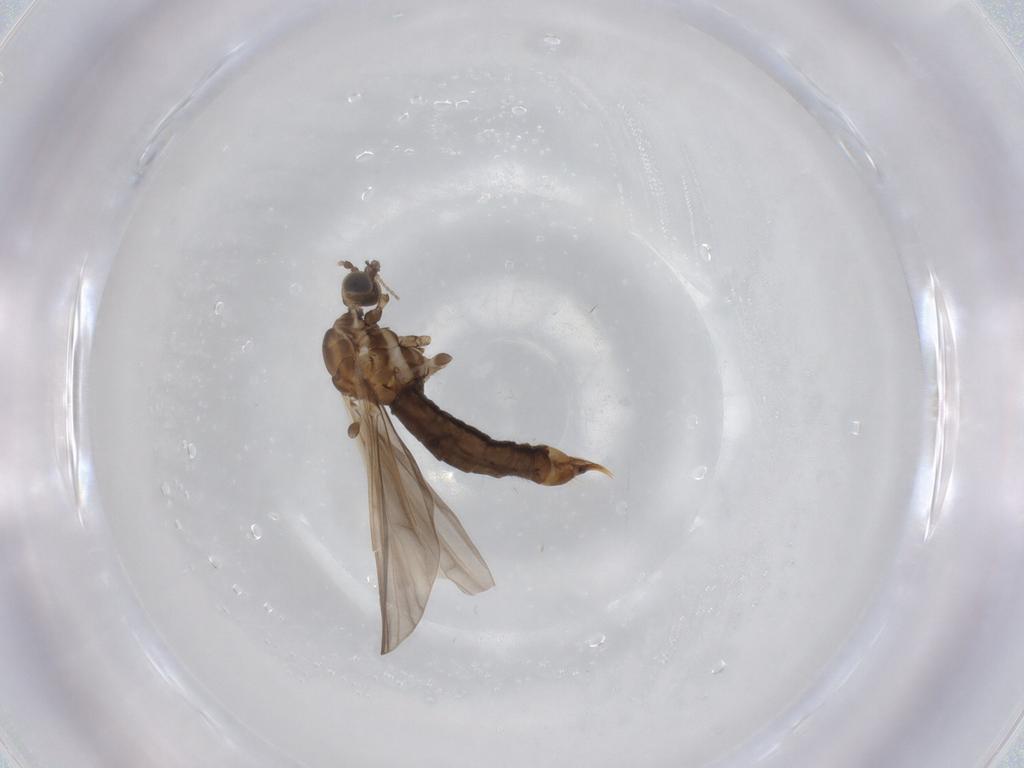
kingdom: Animalia
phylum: Arthropoda
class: Insecta
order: Diptera
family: Limoniidae
